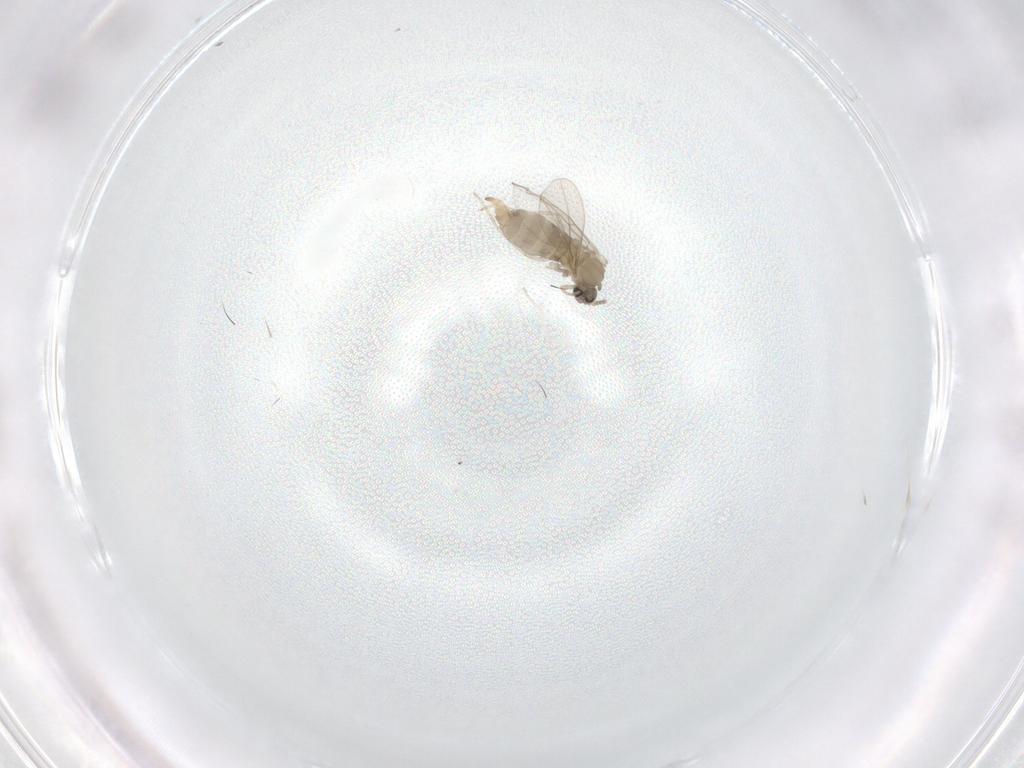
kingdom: Animalia
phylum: Arthropoda
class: Insecta
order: Diptera
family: Cecidomyiidae
